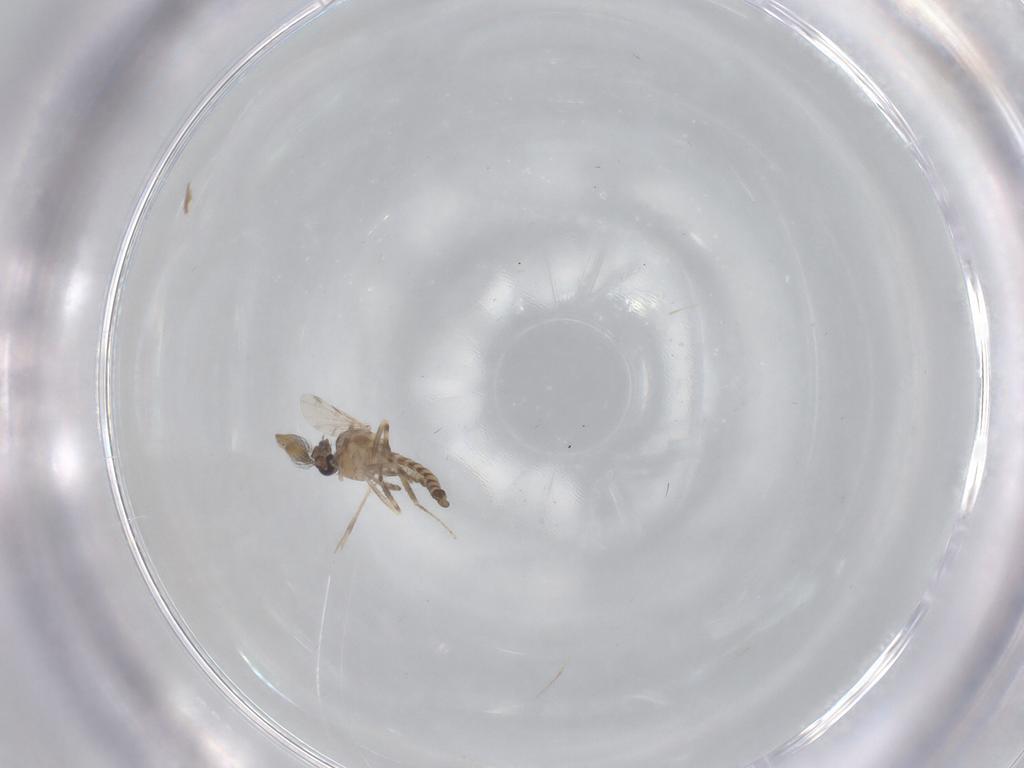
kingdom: Animalia
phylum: Arthropoda
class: Insecta
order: Diptera
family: Ceratopogonidae
